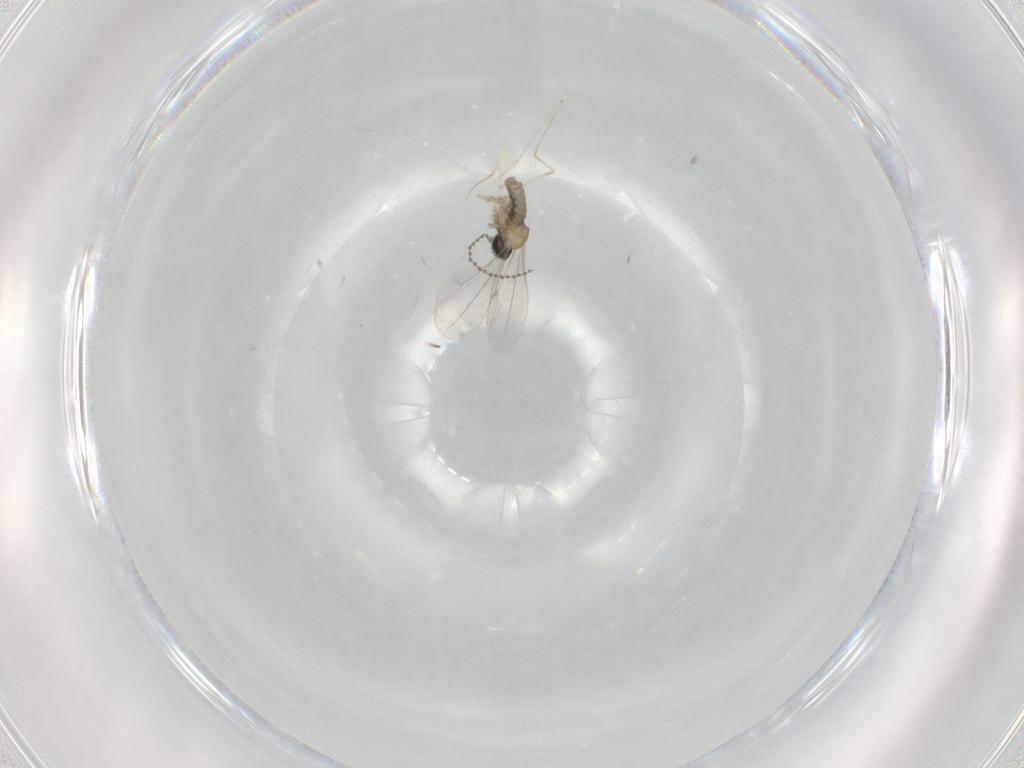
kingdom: Animalia
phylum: Arthropoda
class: Insecta
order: Diptera
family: Cecidomyiidae
